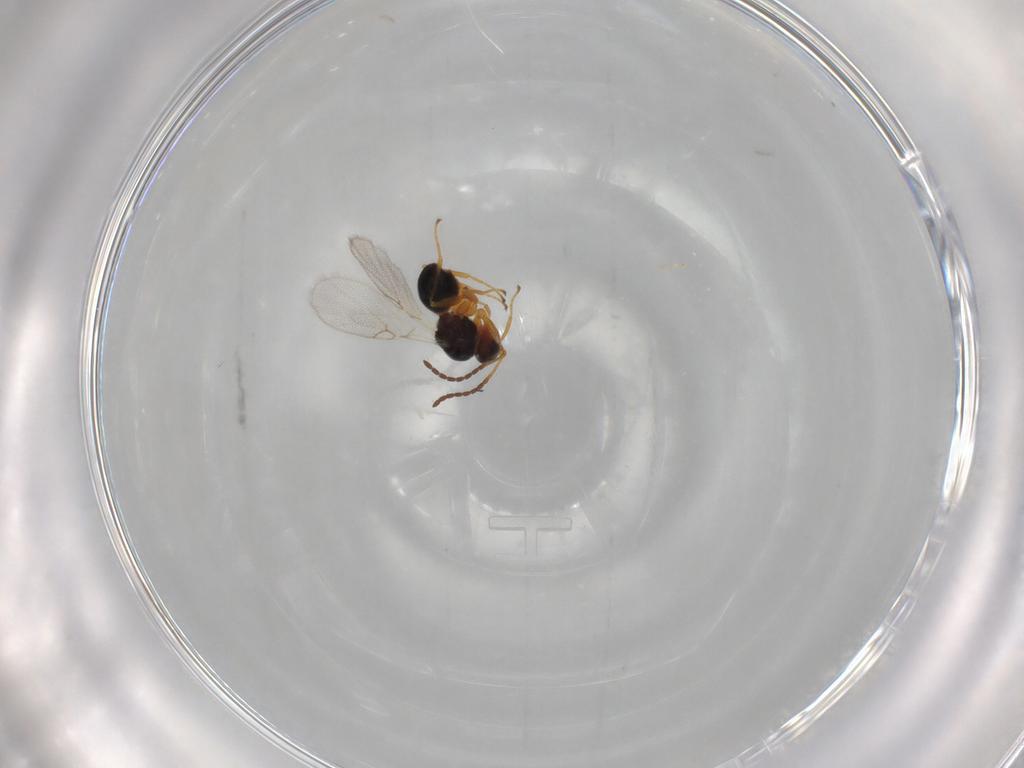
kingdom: Animalia
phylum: Arthropoda
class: Insecta
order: Hymenoptera
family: Figitidae
